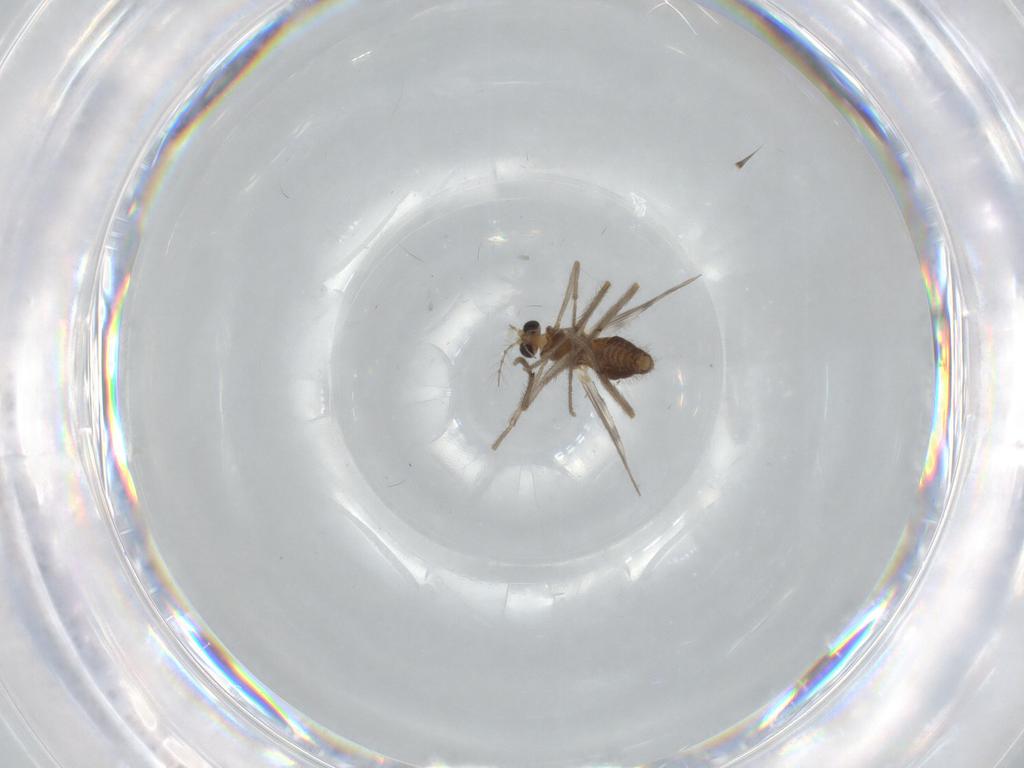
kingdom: Animalia
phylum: Arthropoda
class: Insecta
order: Diptera
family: Chironomidae
